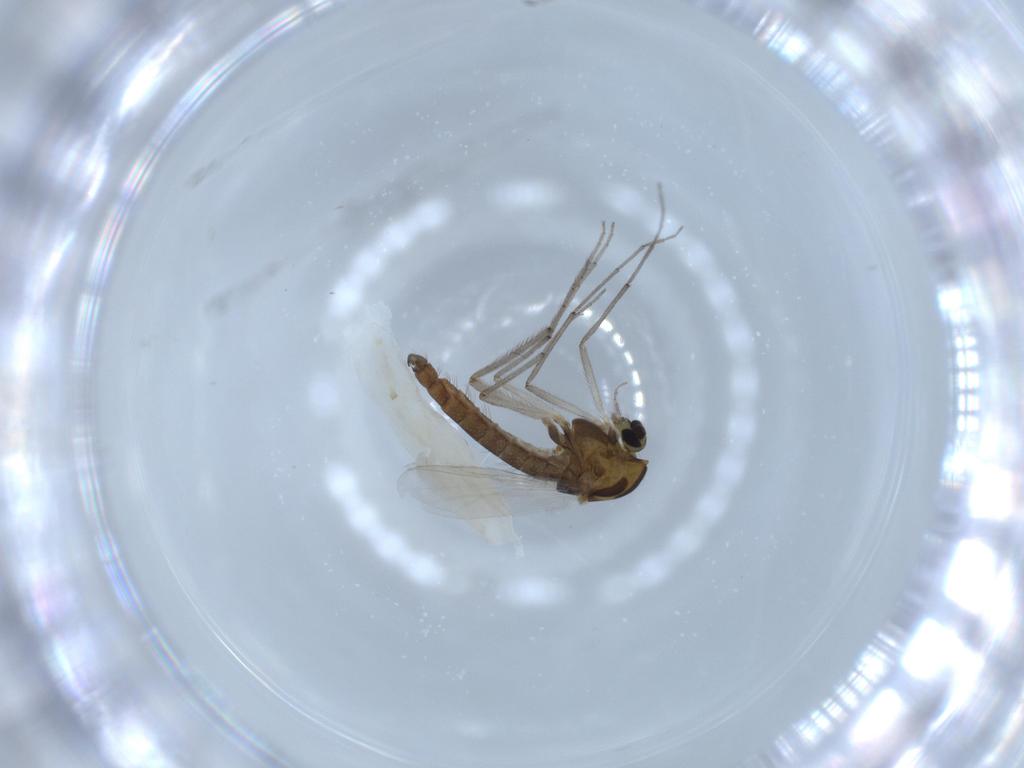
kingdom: Animalia
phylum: Arthropoda
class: Insecta
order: Diptera
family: Chironomidae
